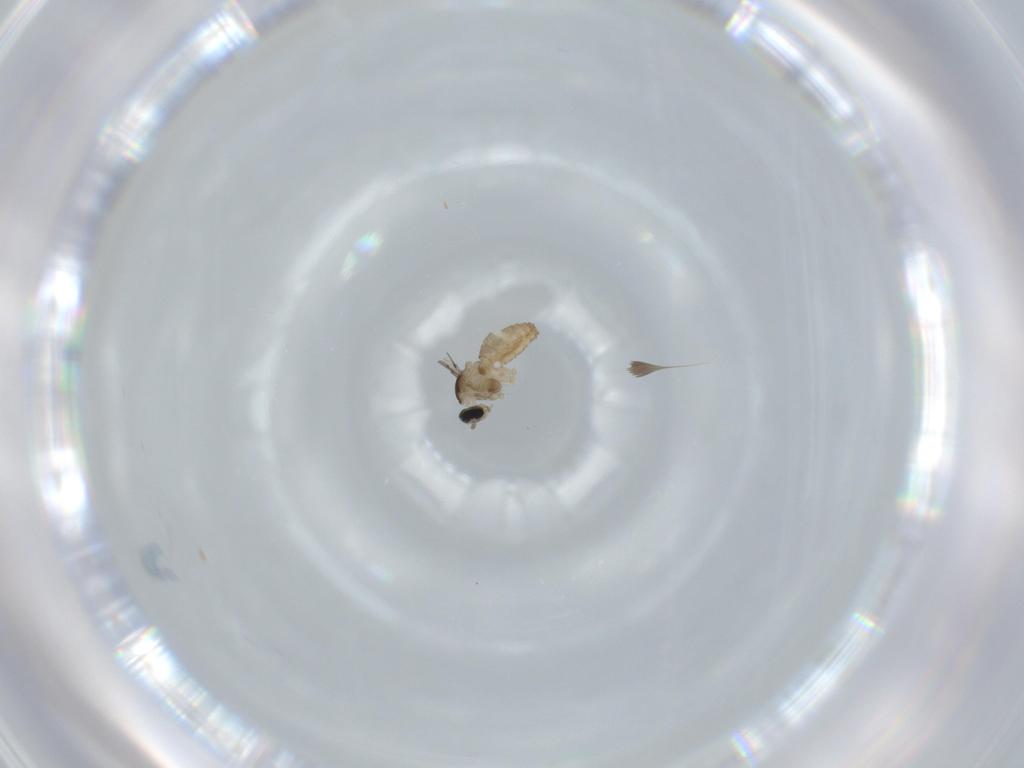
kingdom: Animalia
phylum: Arthropoda
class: Insecta
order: Diptera
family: Cecidomyiidae
